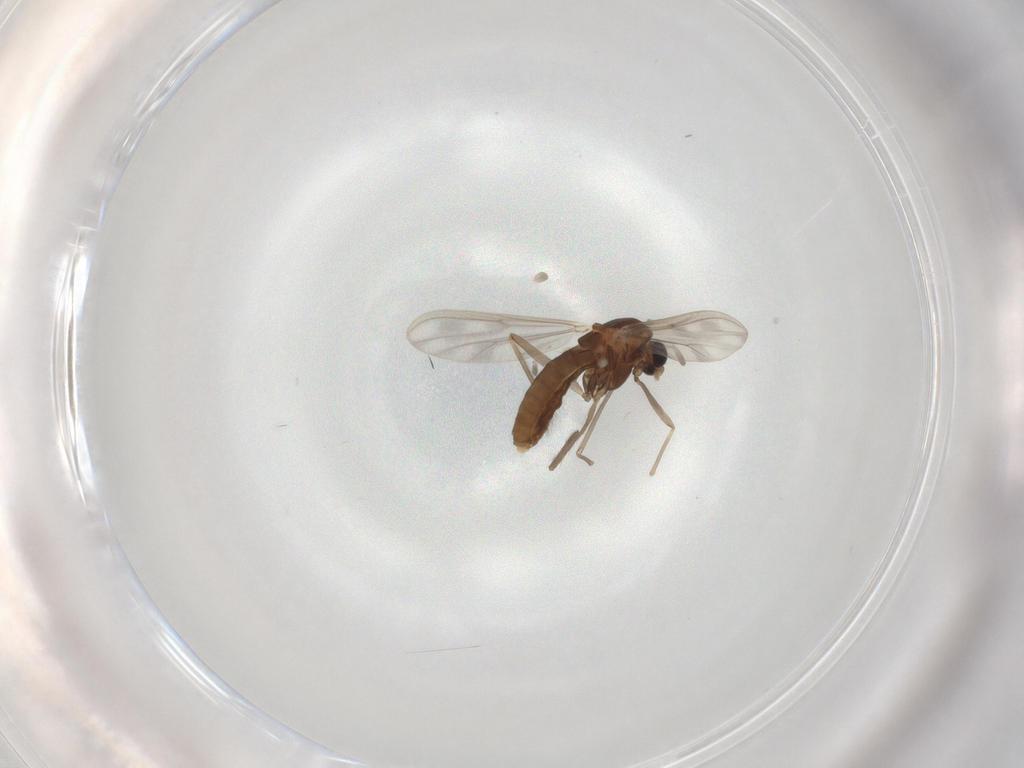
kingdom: Animalia
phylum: Arthropoda
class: Insecta
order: Diptera
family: Chironomidae
